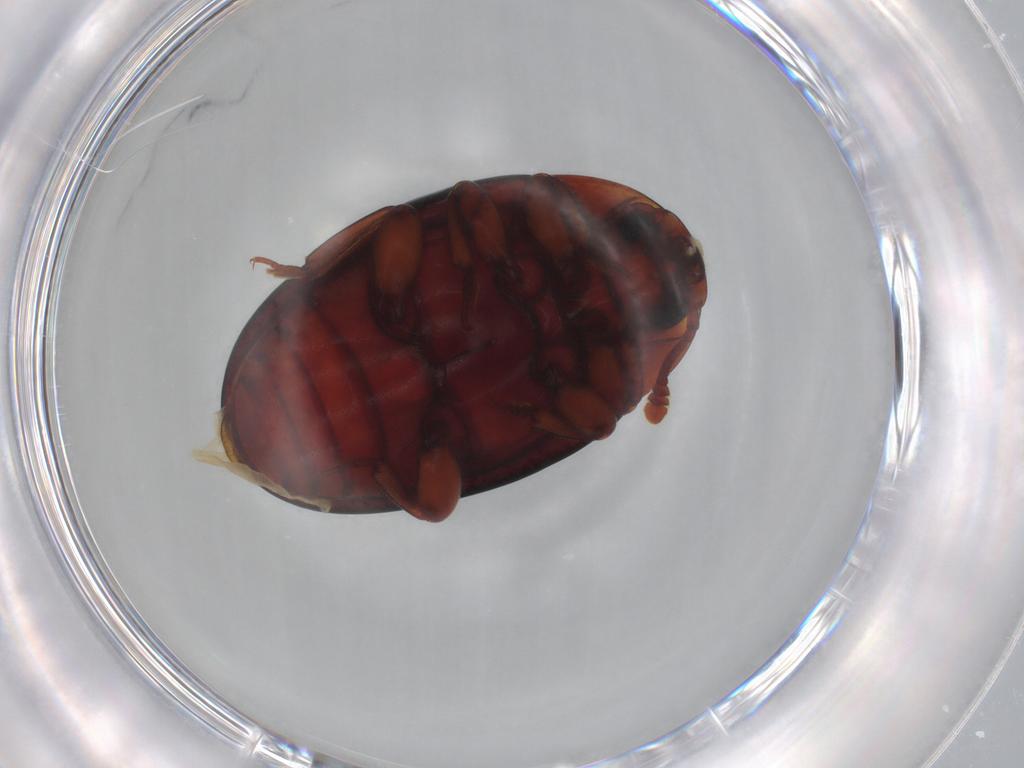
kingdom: Animalia
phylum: Arthropoda
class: Insecta
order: Coleoptera
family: Zopheridae
